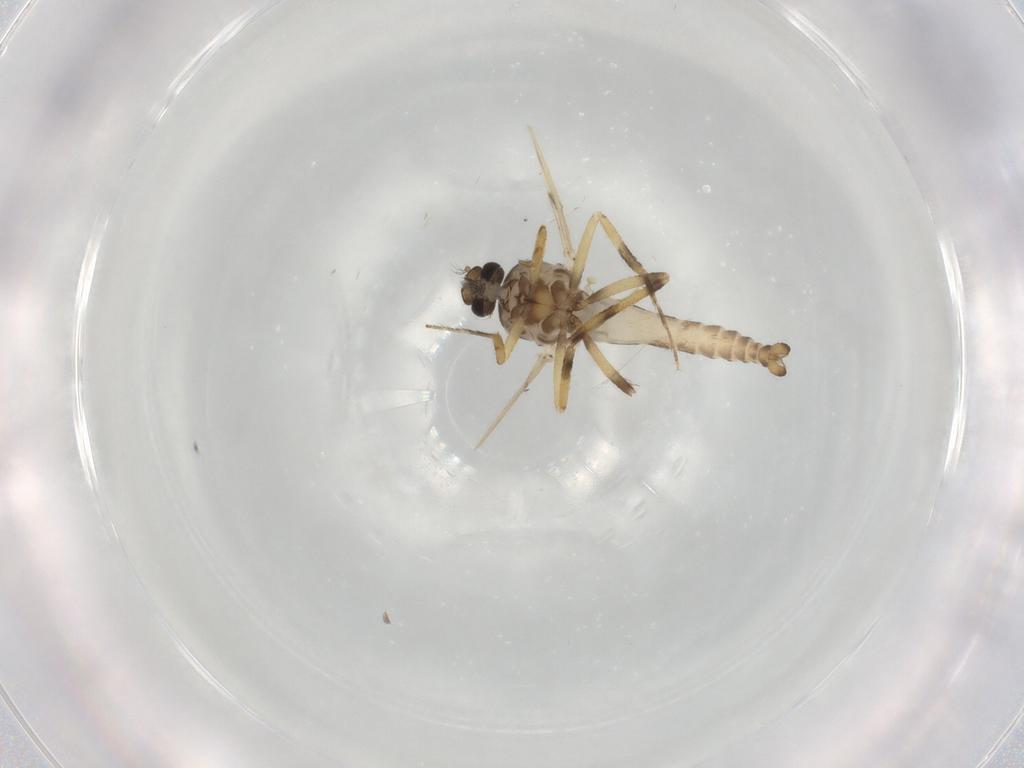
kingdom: Animalia
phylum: Arthropoda
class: Insecta
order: Diptera
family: Ceratopogonidae
